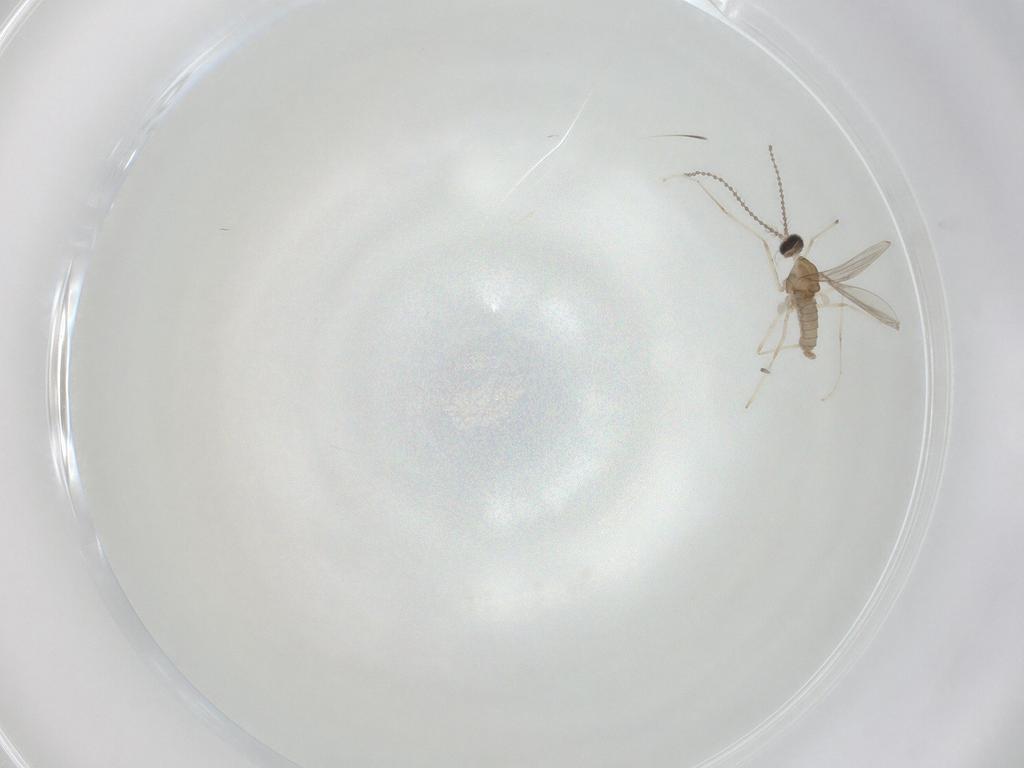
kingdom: Animalia
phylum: Arthropoda
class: Insecta
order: Diptera
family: Cecidomyiidae
